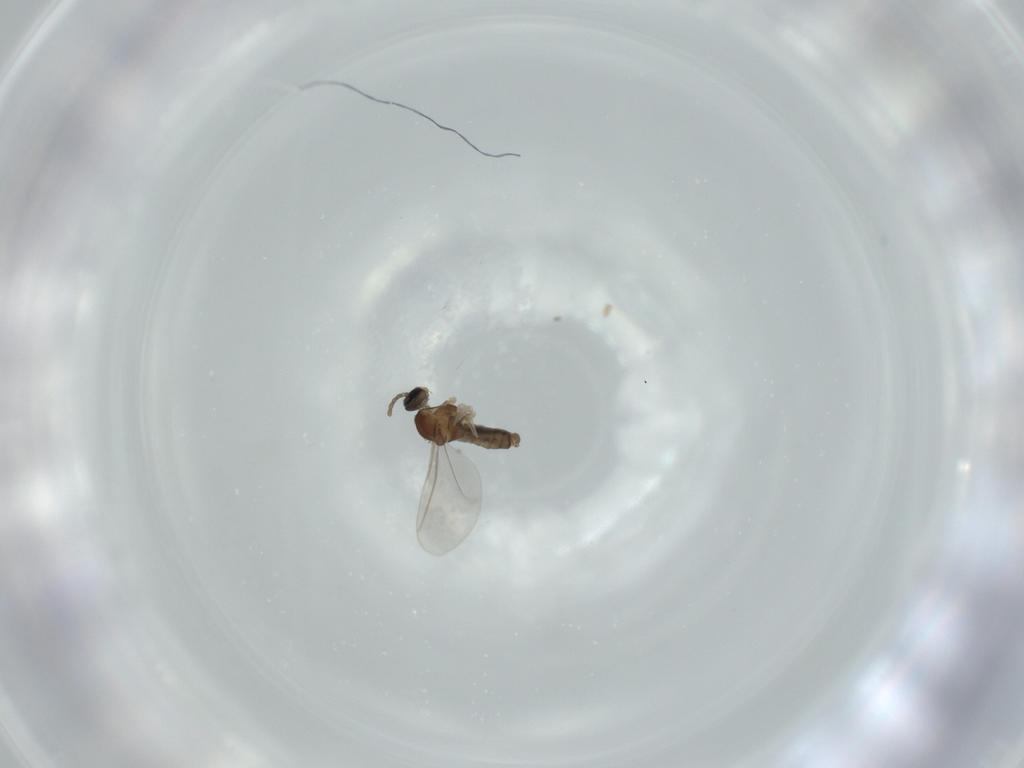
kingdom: Animalia
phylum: Arthropoda
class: Insecta
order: Diptera
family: Cecidomyiidae
